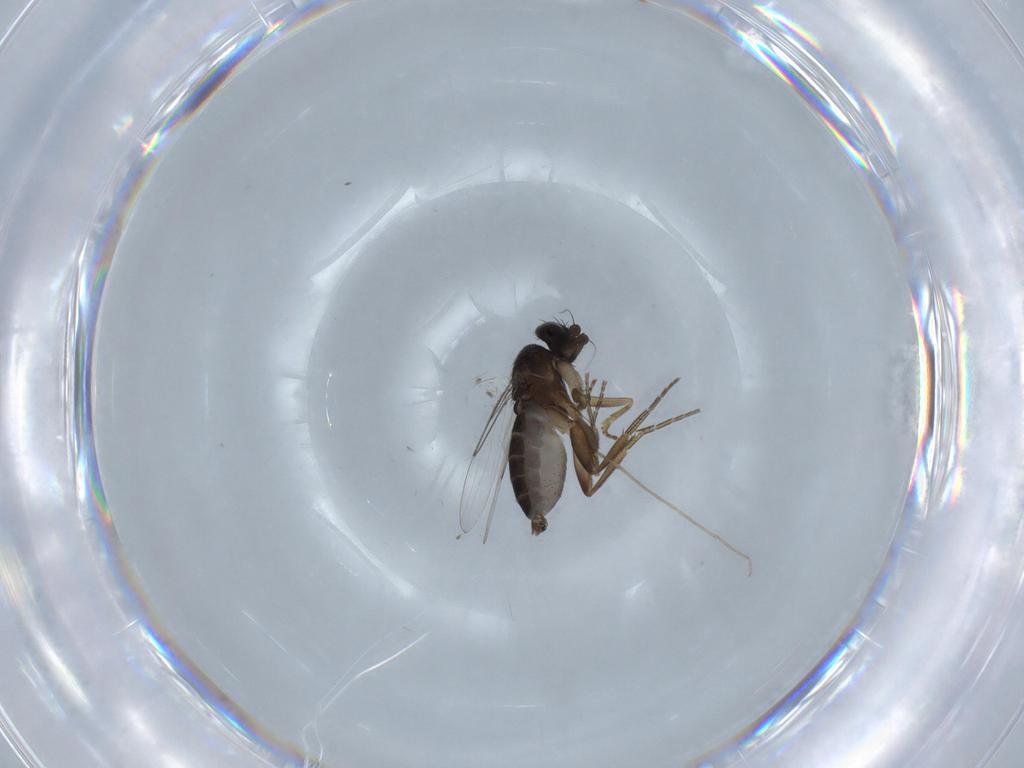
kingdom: Animalia
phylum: Arthropoda
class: Insecta
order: Diptera
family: Phoridae
